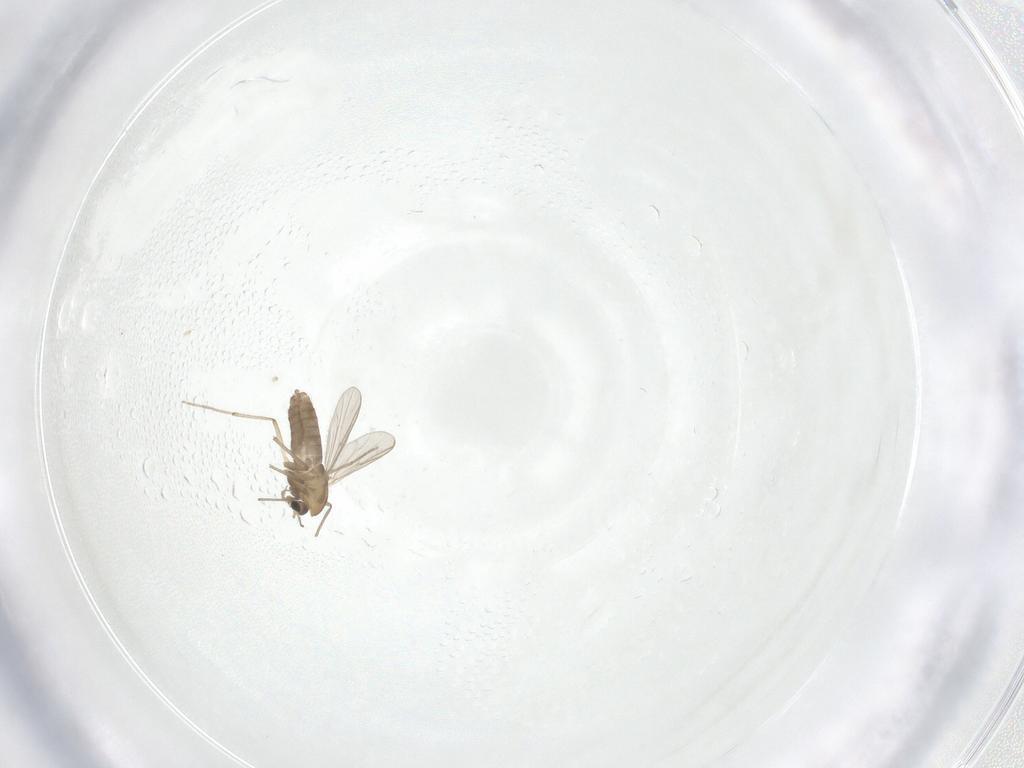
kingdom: Animalia
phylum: Arthropoda
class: Insecta
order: Diptera
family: Chironomidae
